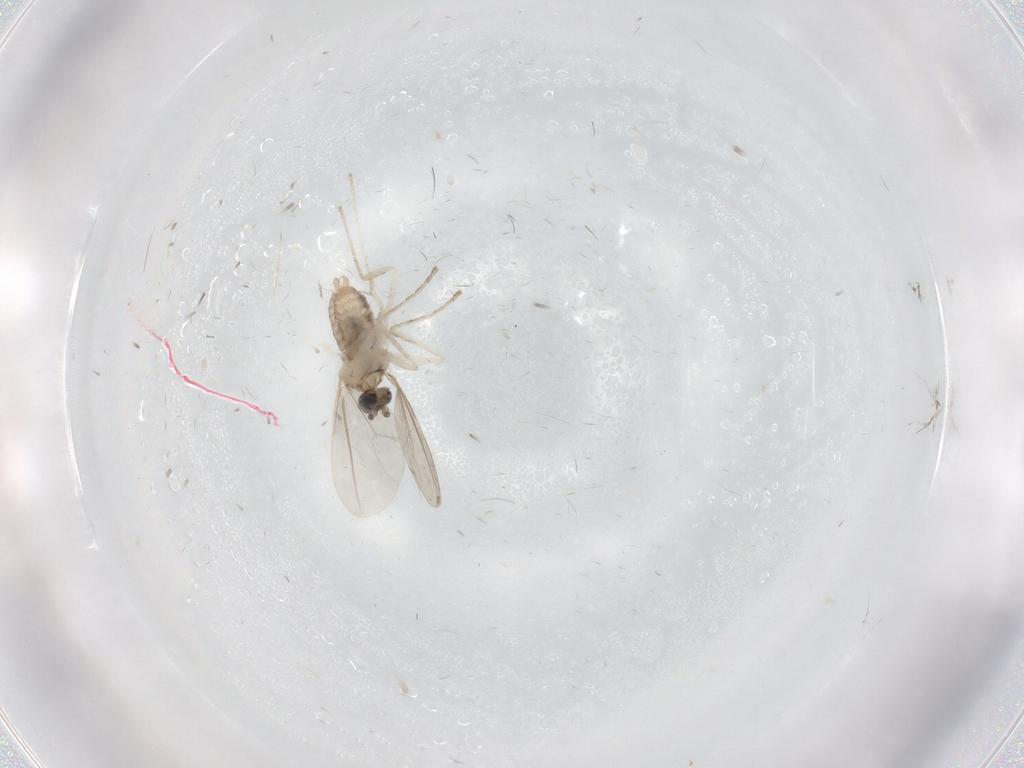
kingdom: Animalia
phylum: Arthropoda
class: Insecta
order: Diptera
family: Cecidomyiidae
